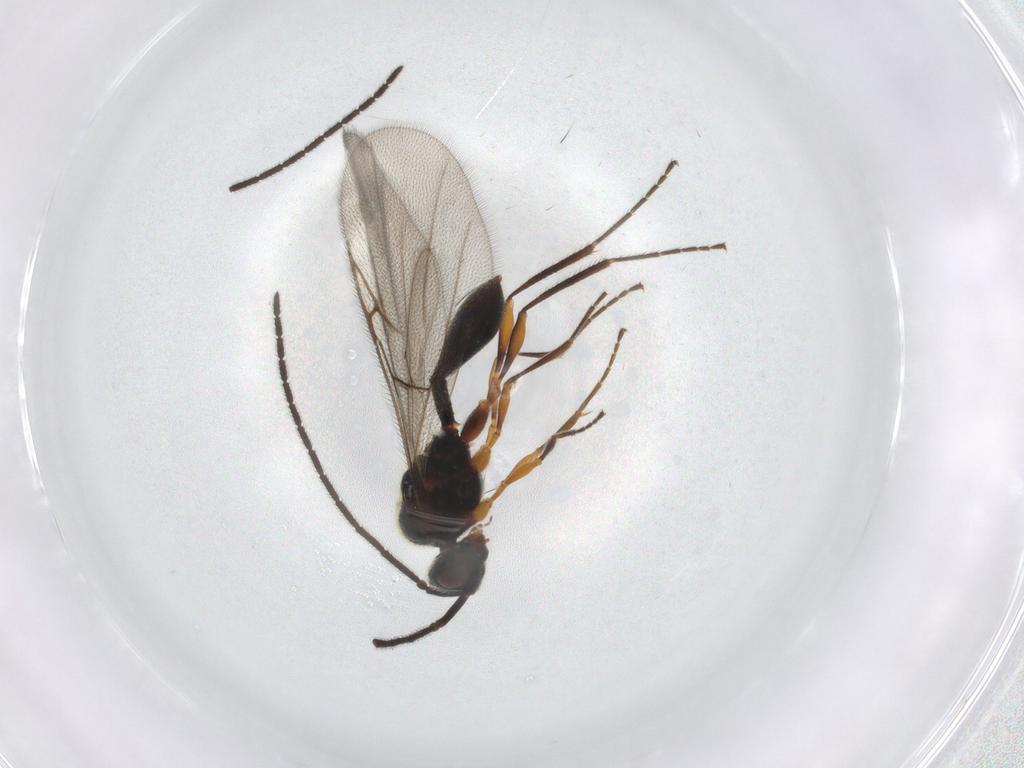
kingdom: Animalia
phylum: Arthropoda
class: Insecta
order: Hymenoptera
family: Diapriidae
